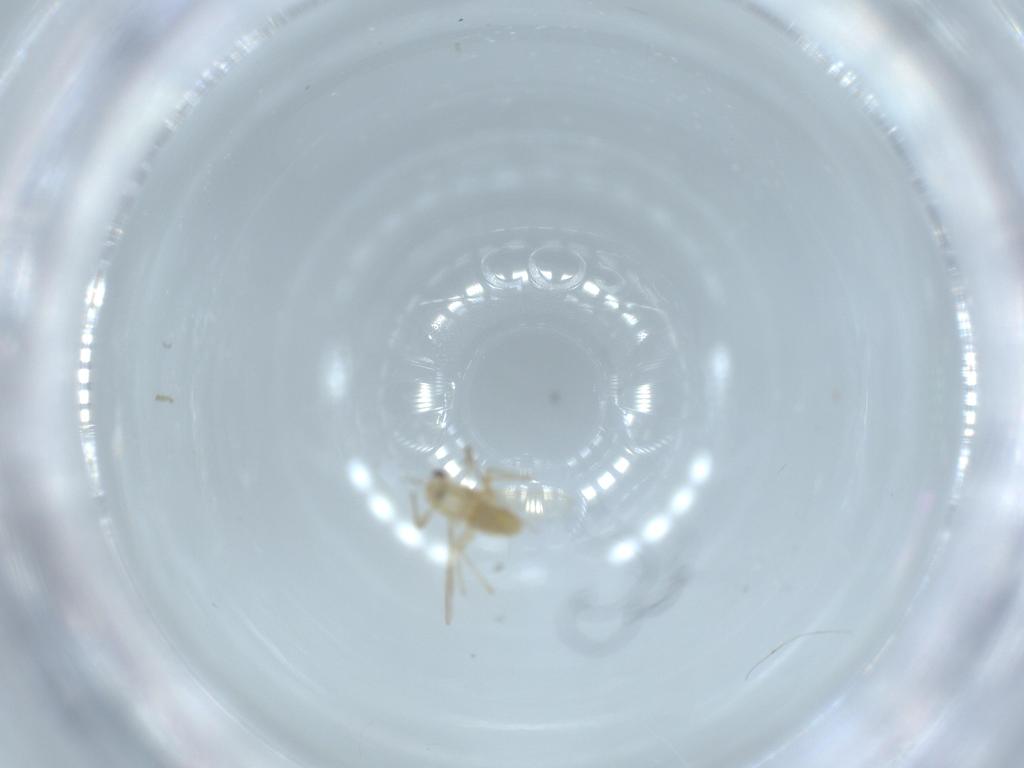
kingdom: Animalia
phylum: Arthropoda
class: Insecta
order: Diptera
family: Chironomidae
